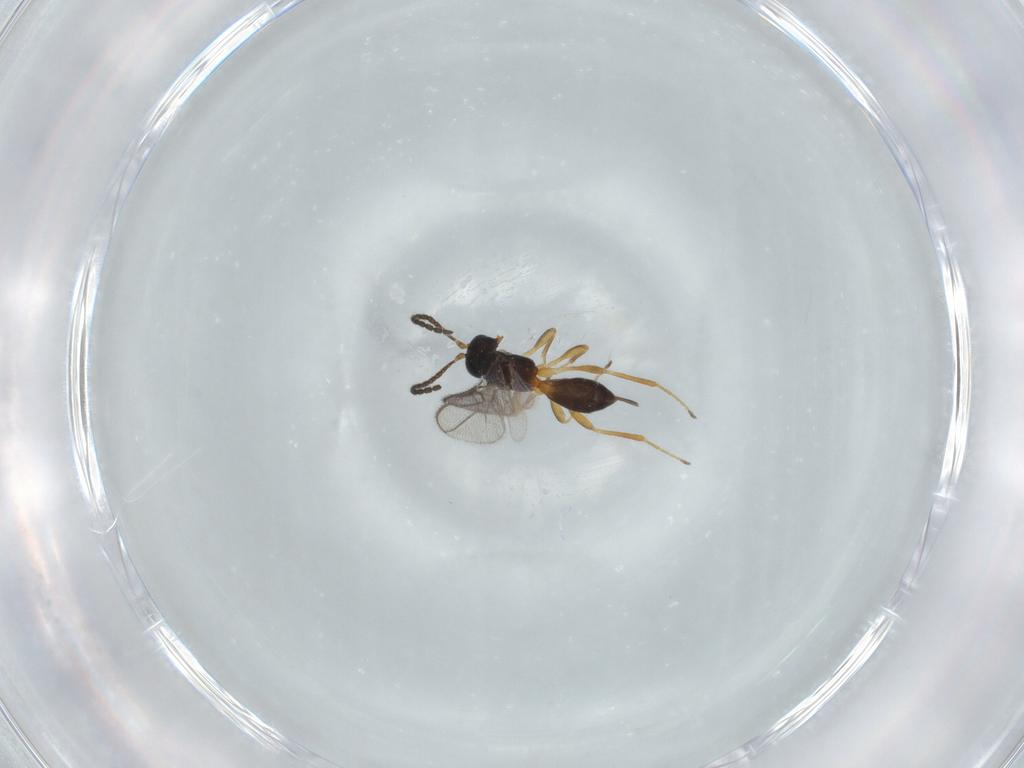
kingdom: Animalia
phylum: Arthropoda
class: Insecta
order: Hymenoptera
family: Braconidae
